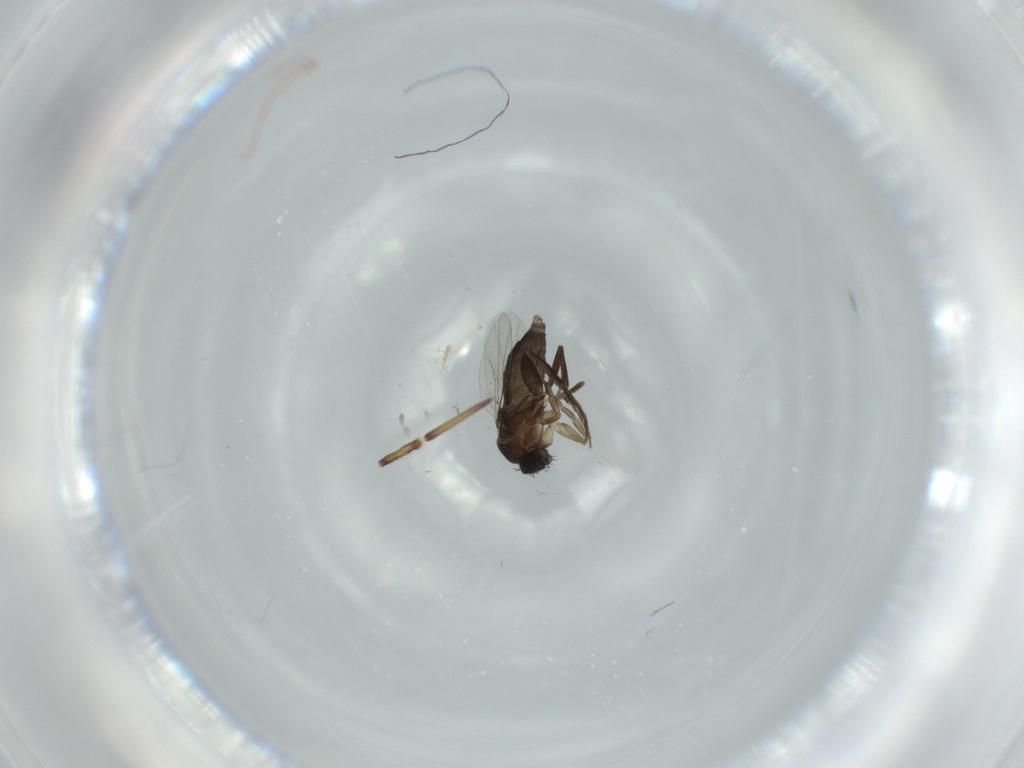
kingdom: Animalia
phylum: Arthropoda
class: Insecta
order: Diptera
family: Phoridae
